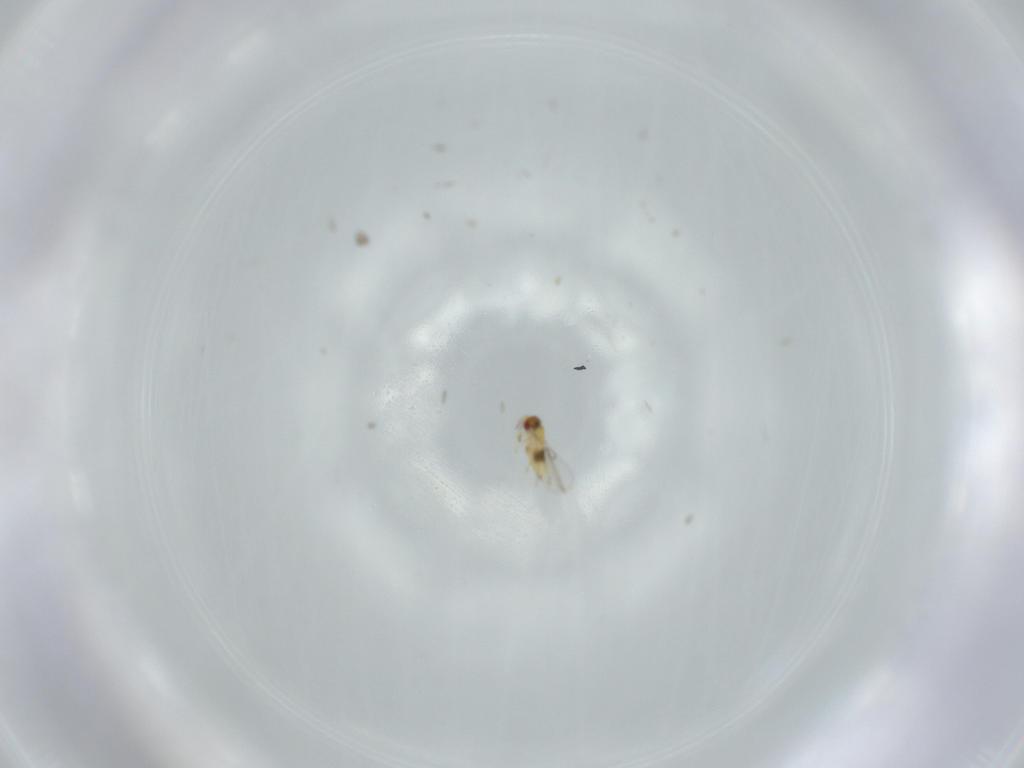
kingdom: Animalia
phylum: Arthropoda
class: Insecta
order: Hymenoptera
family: Trichogrammatidae
